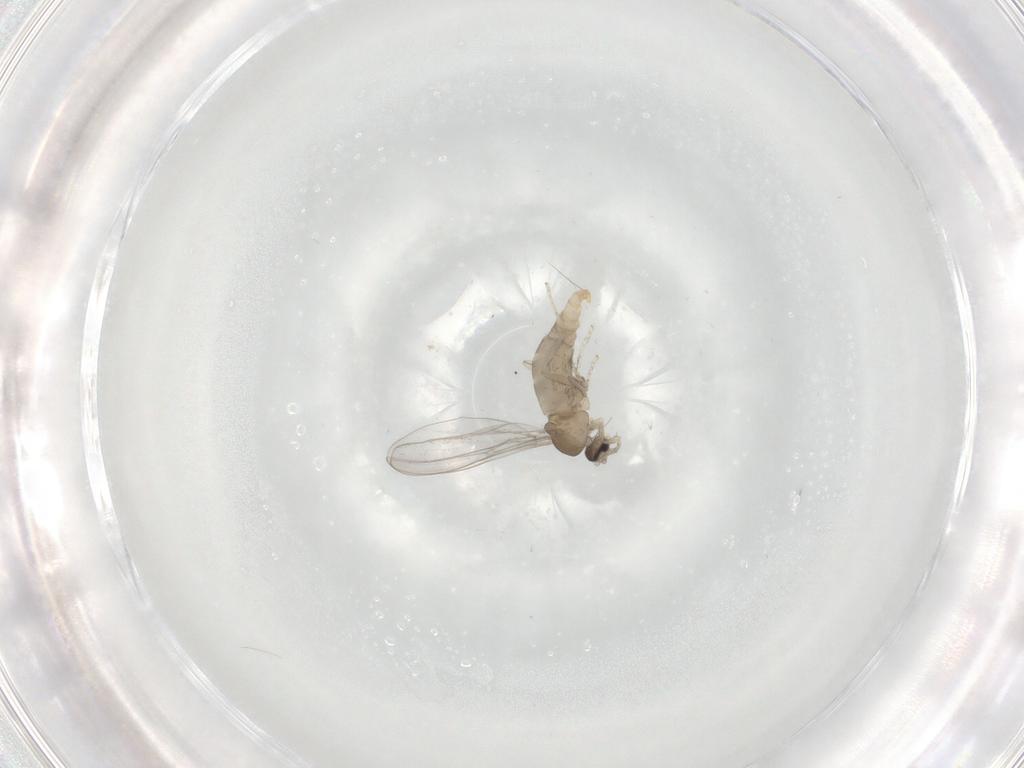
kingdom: Animalia
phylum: Arthropoda
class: Insecta
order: Diptera
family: Cecidomyiidae
